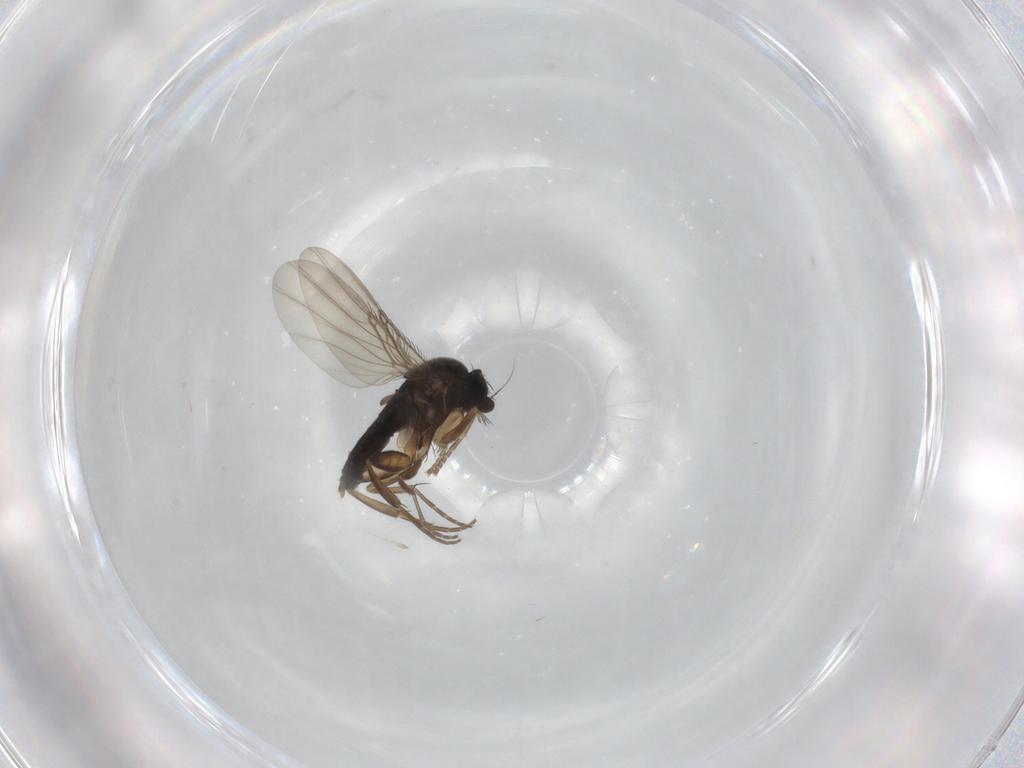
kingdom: Animalia
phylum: Arthropoda
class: Insecta
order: Diptera
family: Phoridae
